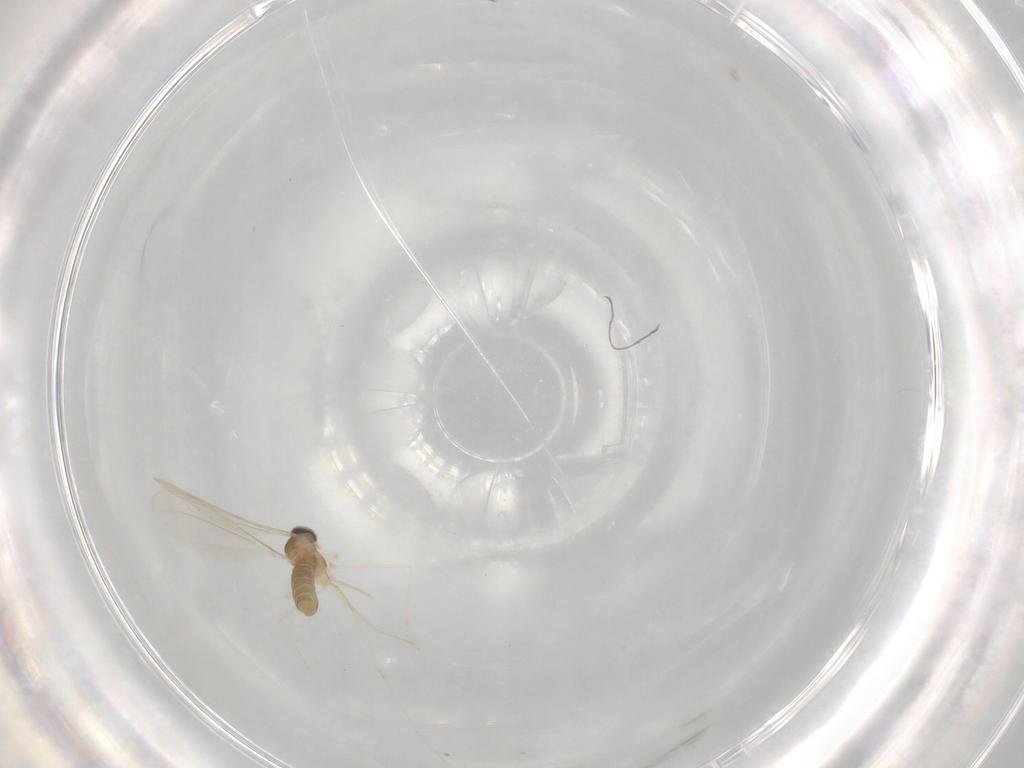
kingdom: Animalia
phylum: Arthropoda
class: Insecta
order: Diptera
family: Cecidomyiidae
